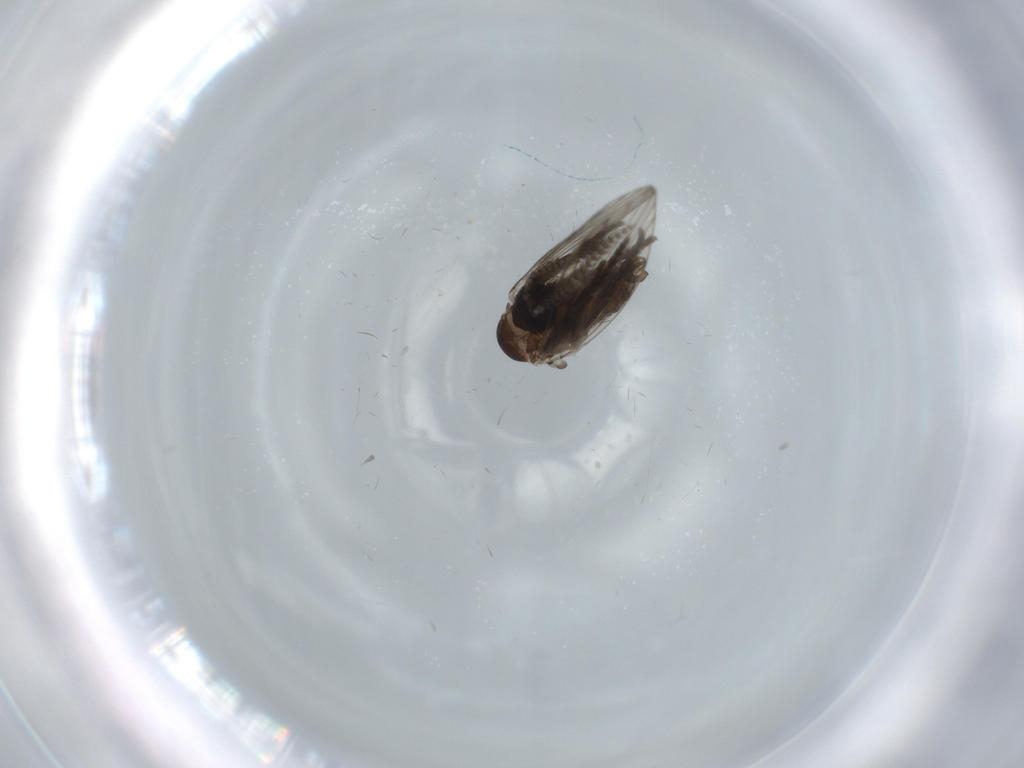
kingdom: Animalia
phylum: Arthropoda
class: Insecta
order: Diptera
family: Psychodidae
